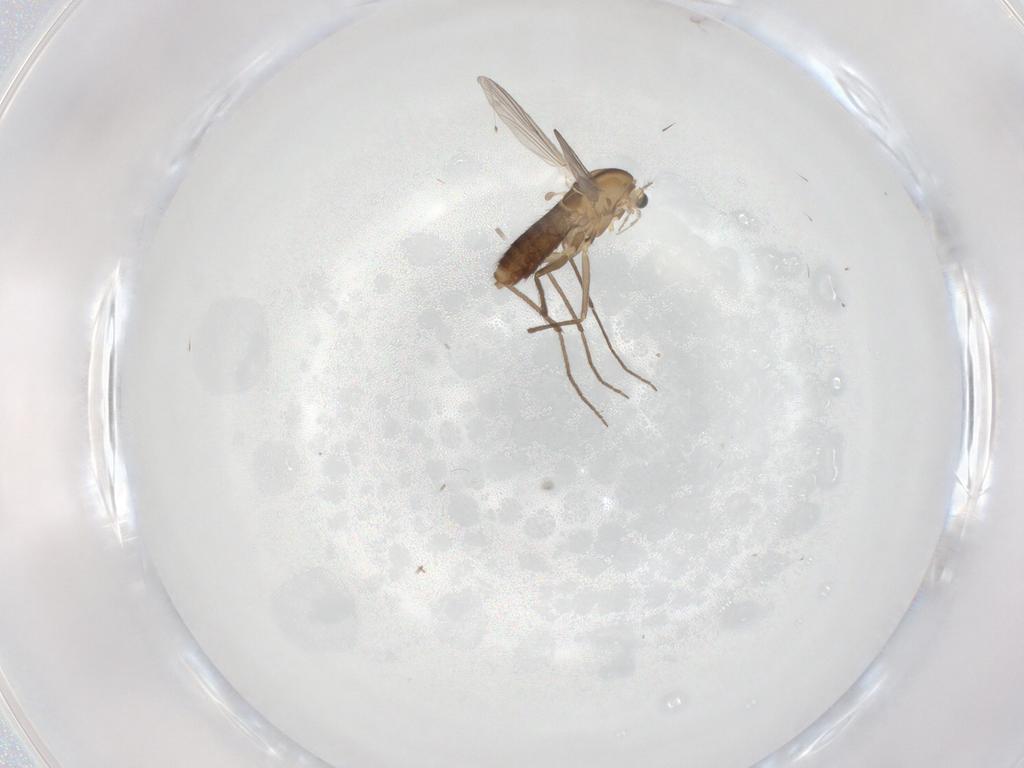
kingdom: Animalia
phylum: Arthropoda
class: Insecta
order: Diptera
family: Chironomidae
